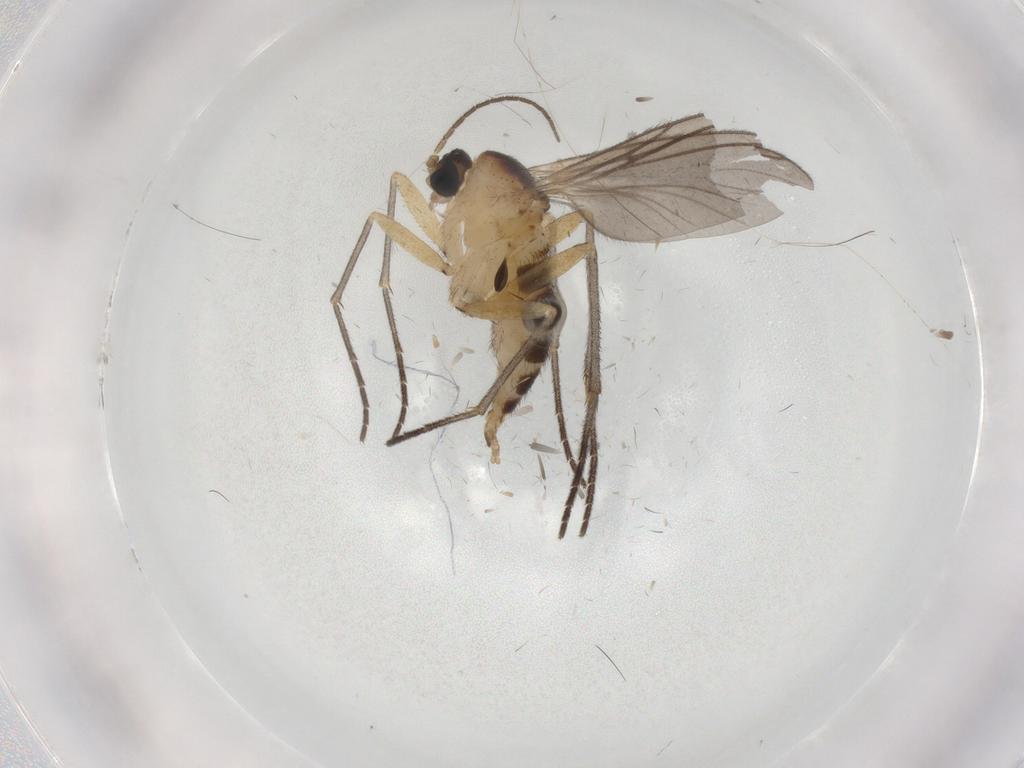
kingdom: Animalia
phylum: Arthropoda
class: Insecta
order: Diptera
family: Sciaridae
